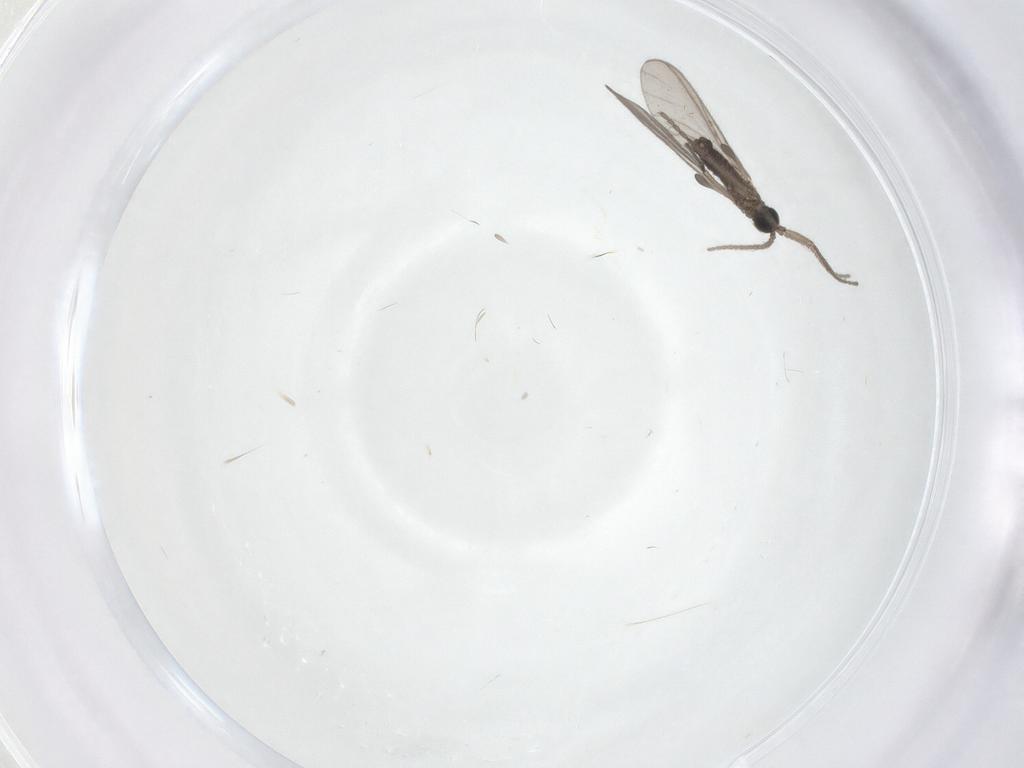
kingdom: Animalia
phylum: Arthropoda
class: Insecta
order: Diptera
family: Sciaridae
